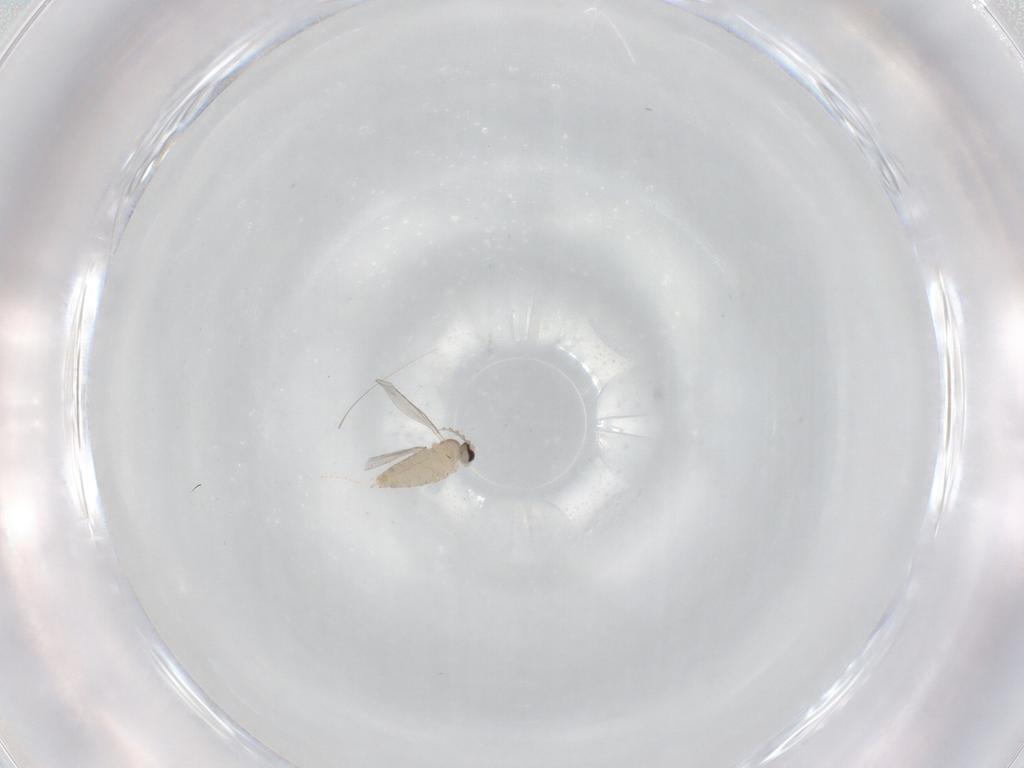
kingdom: Animalia
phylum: Arthropoda
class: Insecta
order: Diptera
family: Cecidomyiidae
